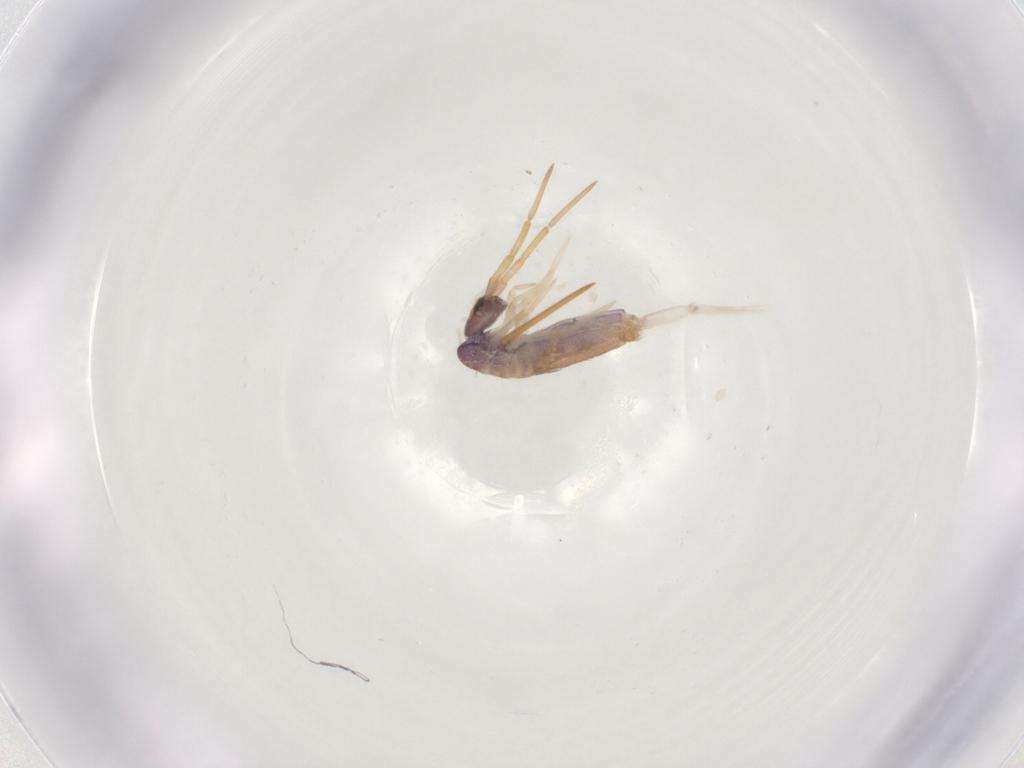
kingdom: Animalia
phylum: Arthropoda
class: Collembola
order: Entomobryomorpha
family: Entomobryidae
